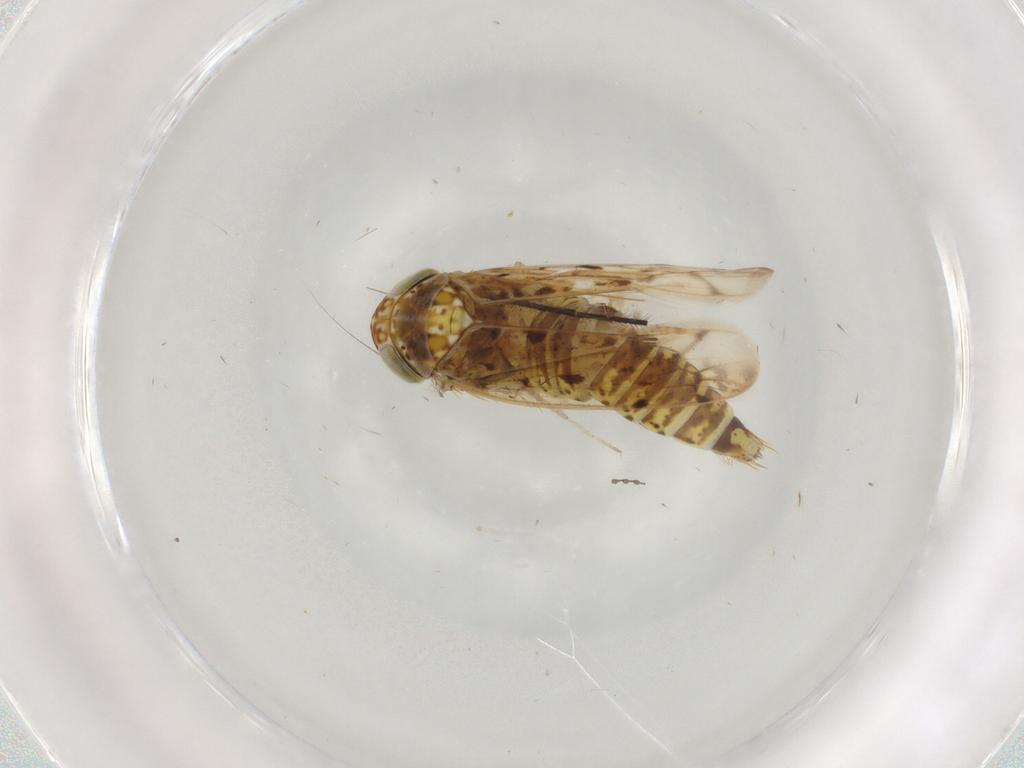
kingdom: Animalia
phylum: Arthropoda
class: Insecta
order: Hemiptera
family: Cicadellidae
